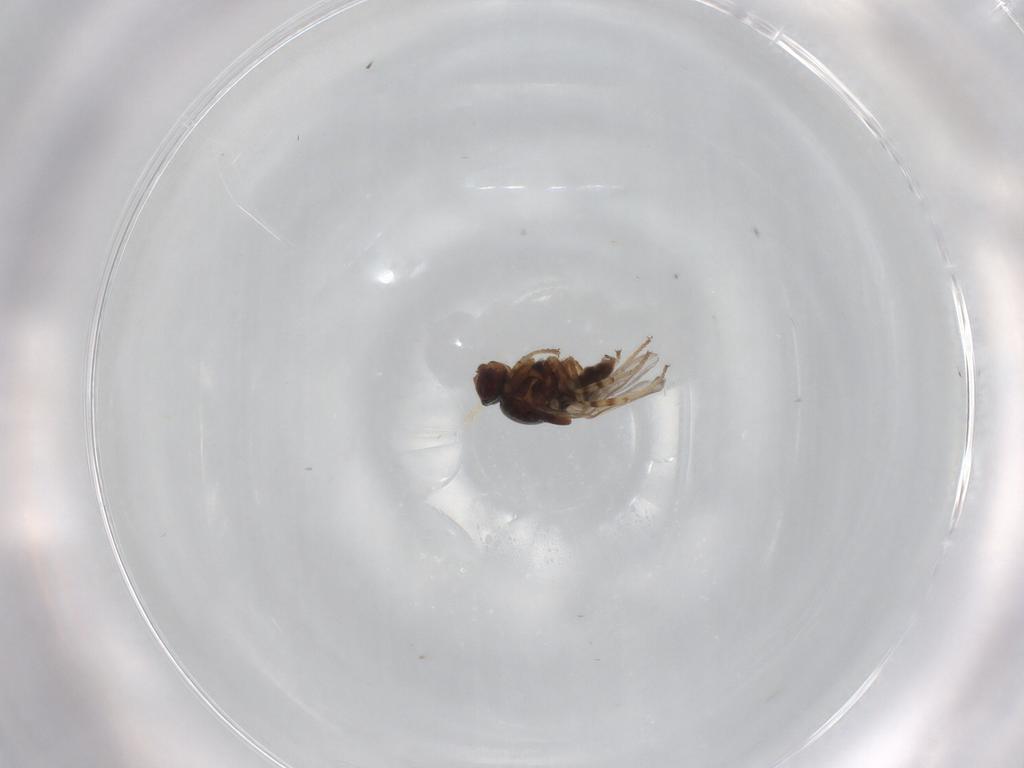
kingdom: Animalia
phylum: Arthropoda
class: Insecta
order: Diptera
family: Chloropidae
